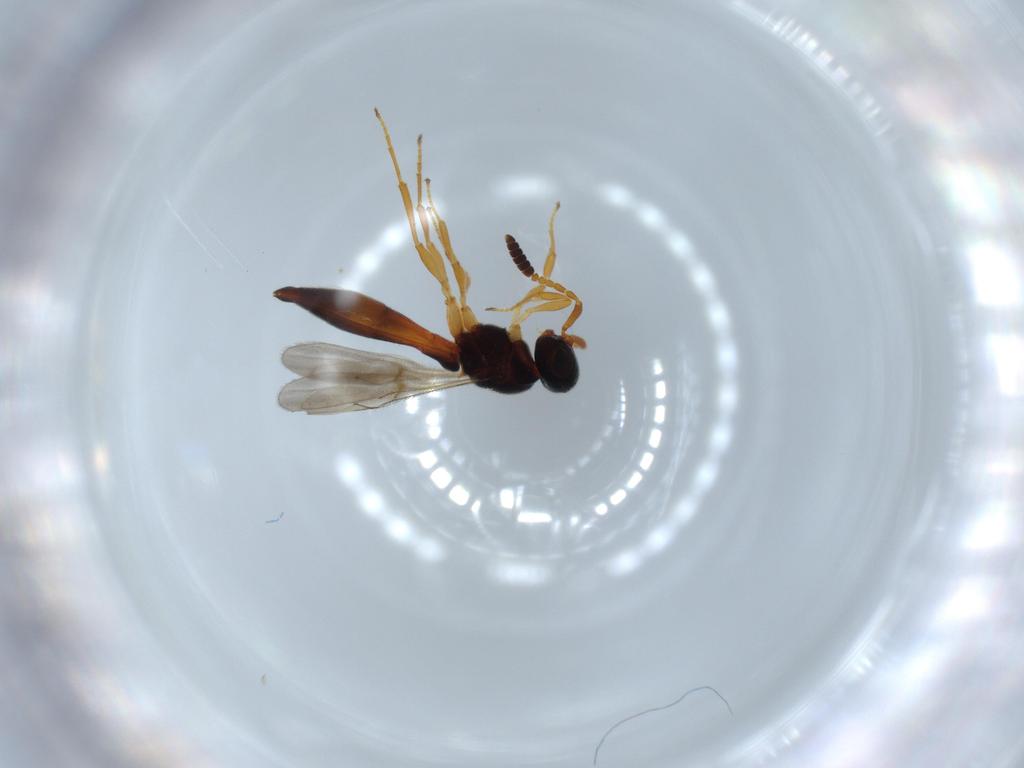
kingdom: Animalia
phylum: Arthropoda
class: Insecta
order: Hymenoptera
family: Scelionidae
